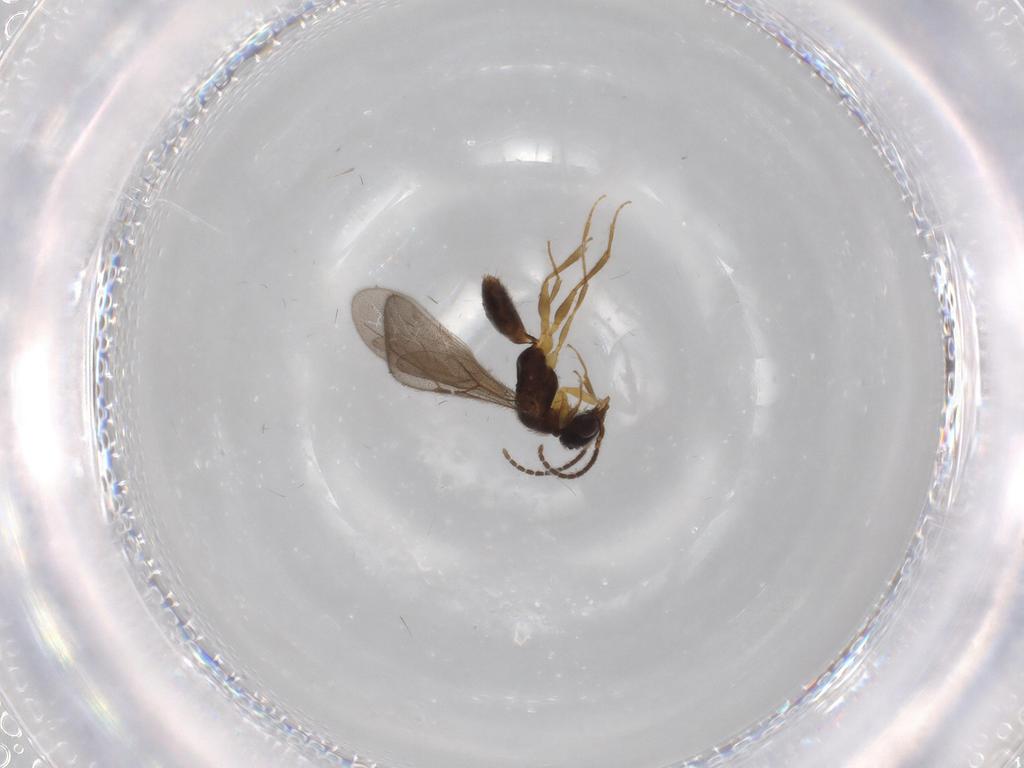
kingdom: Animalia
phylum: Arthropoda
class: Insecta
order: Hymenoptera
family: Bethylidae
